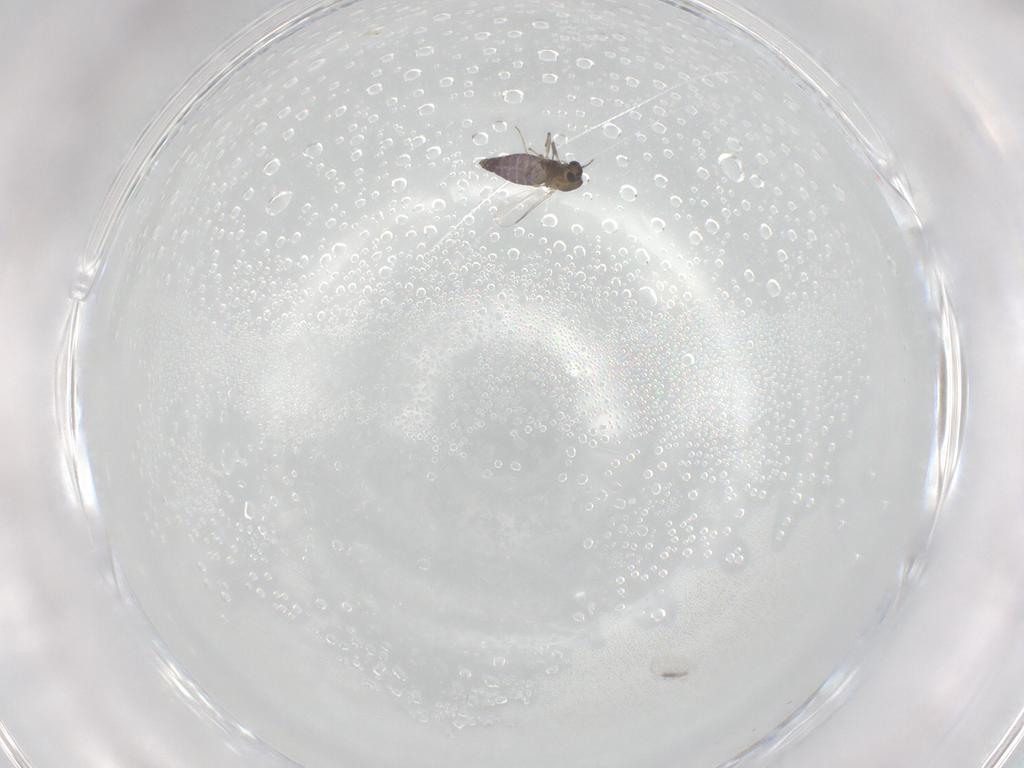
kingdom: Animalia
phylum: Arthropoda
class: Insecta
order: Diptera
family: Chironomidae
